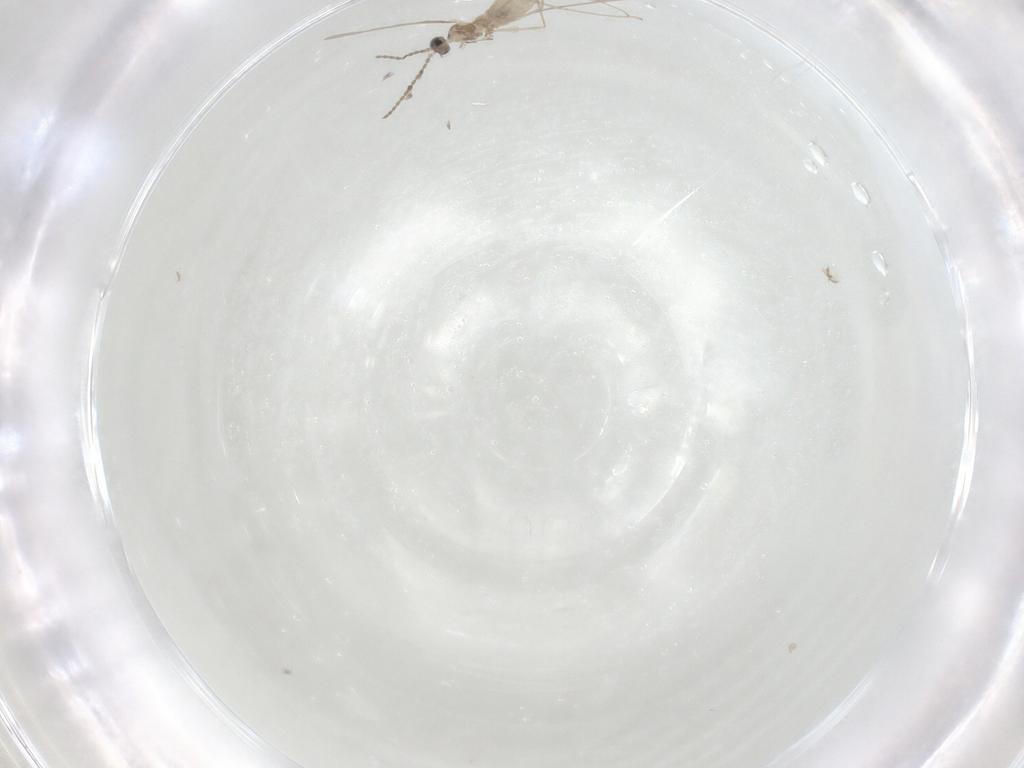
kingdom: Animalia
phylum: Arthropoda
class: Insecta
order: Diptera
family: Cecidomyiidae
